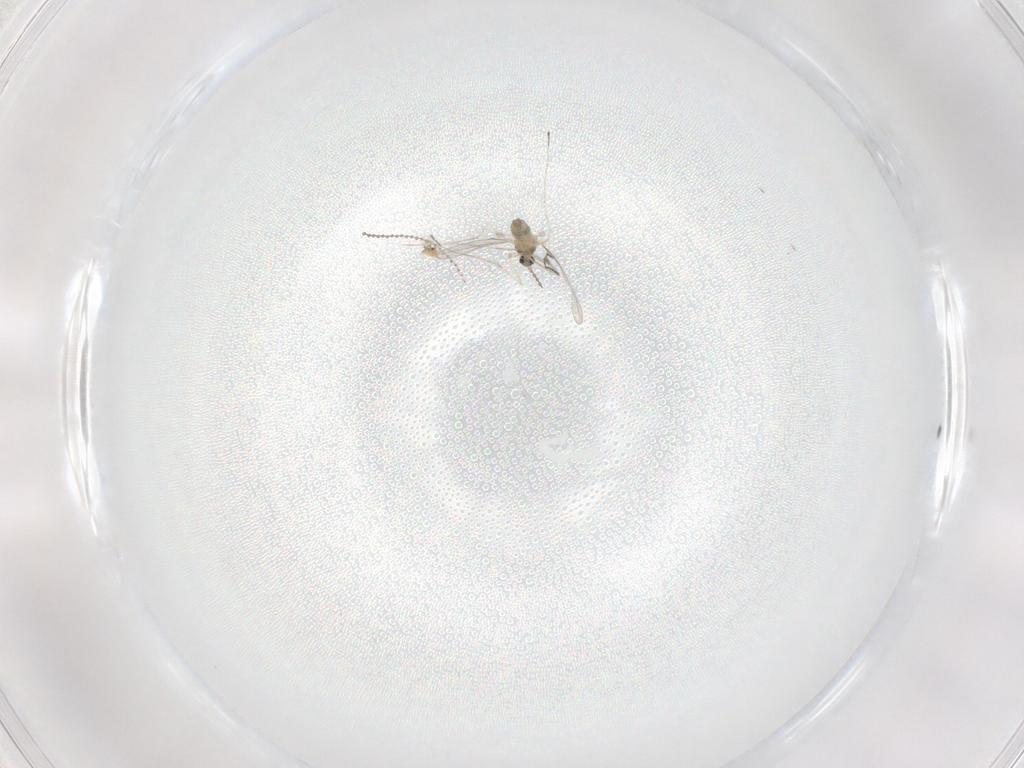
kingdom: Animalia
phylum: Arthropoda
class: Insecta
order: Diptera
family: Cecidomyiidae
